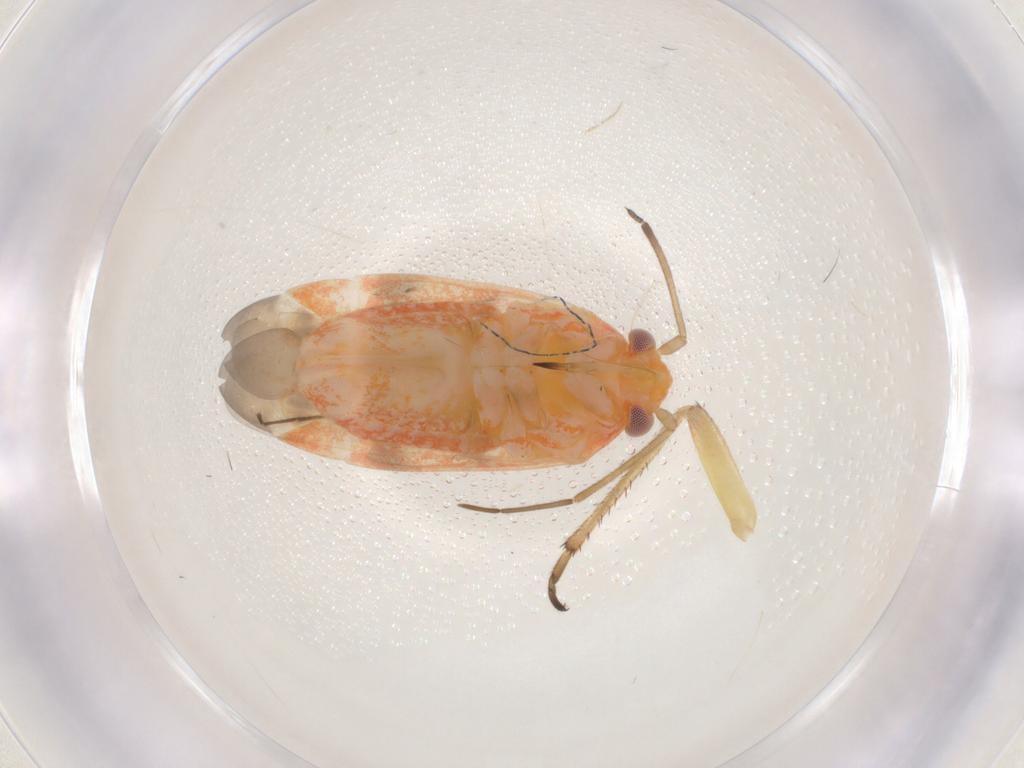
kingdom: Animalia
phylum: Arthropoda
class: Insecta
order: Hemiptera
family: Miridae
